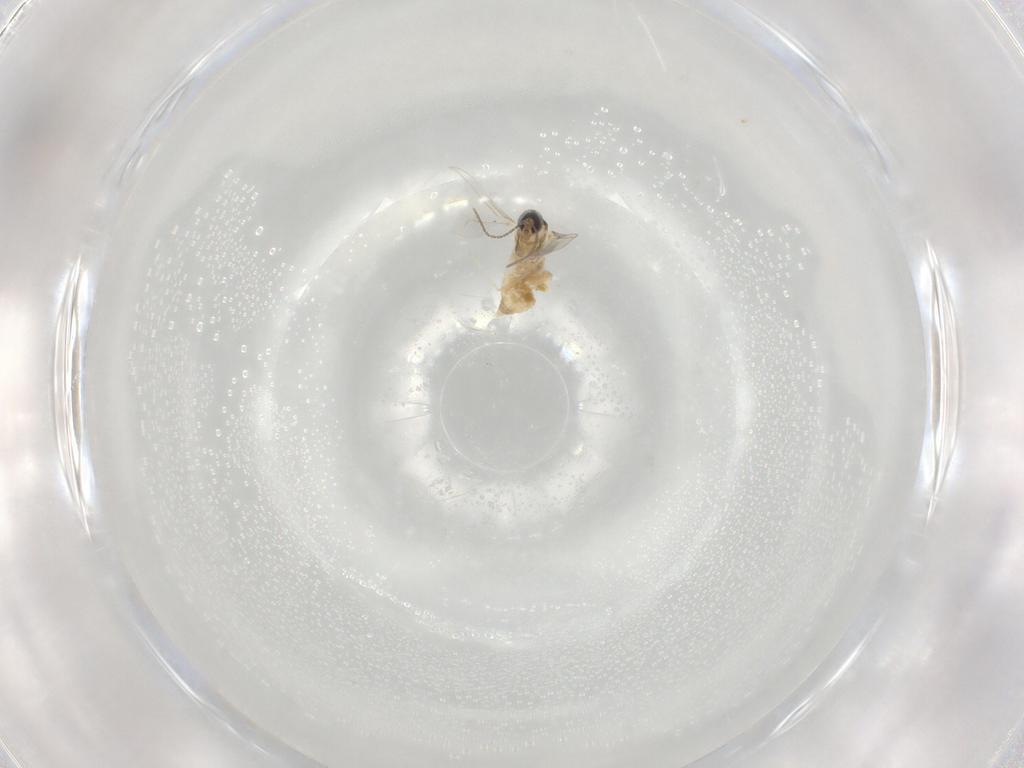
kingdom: Animalia
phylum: Arthropoda
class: Insecta
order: Diptera
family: Cecidomyiidae
